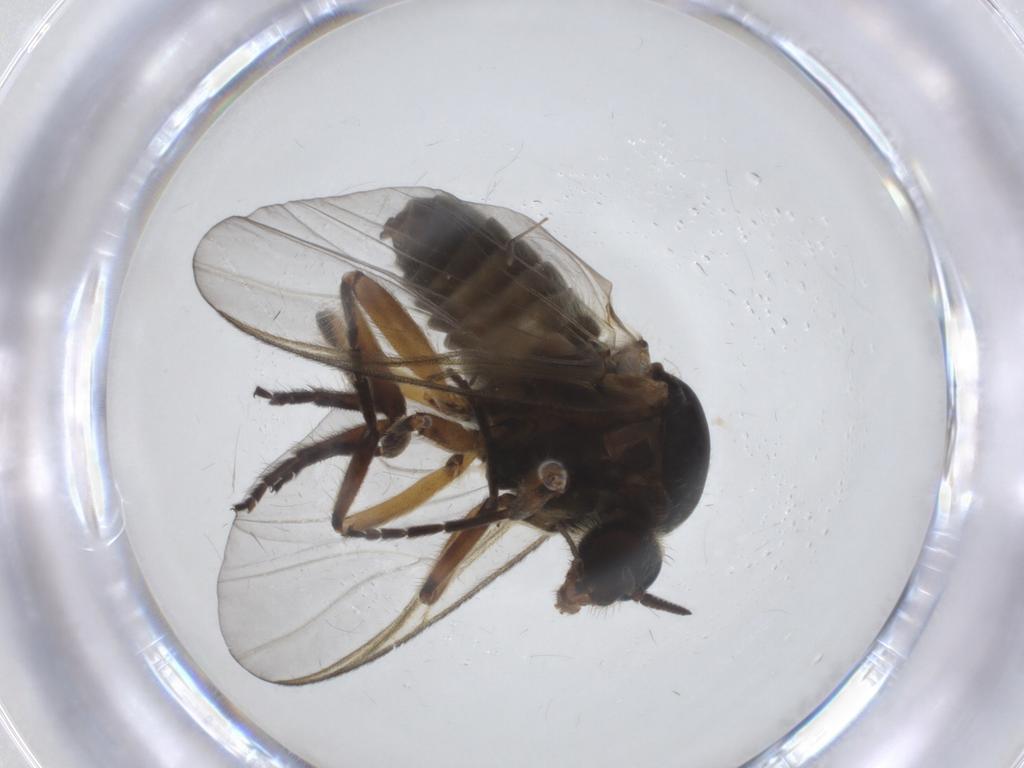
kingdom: Animalia
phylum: Arthropoda
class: Insecta
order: Diptera
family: Simuliidae
